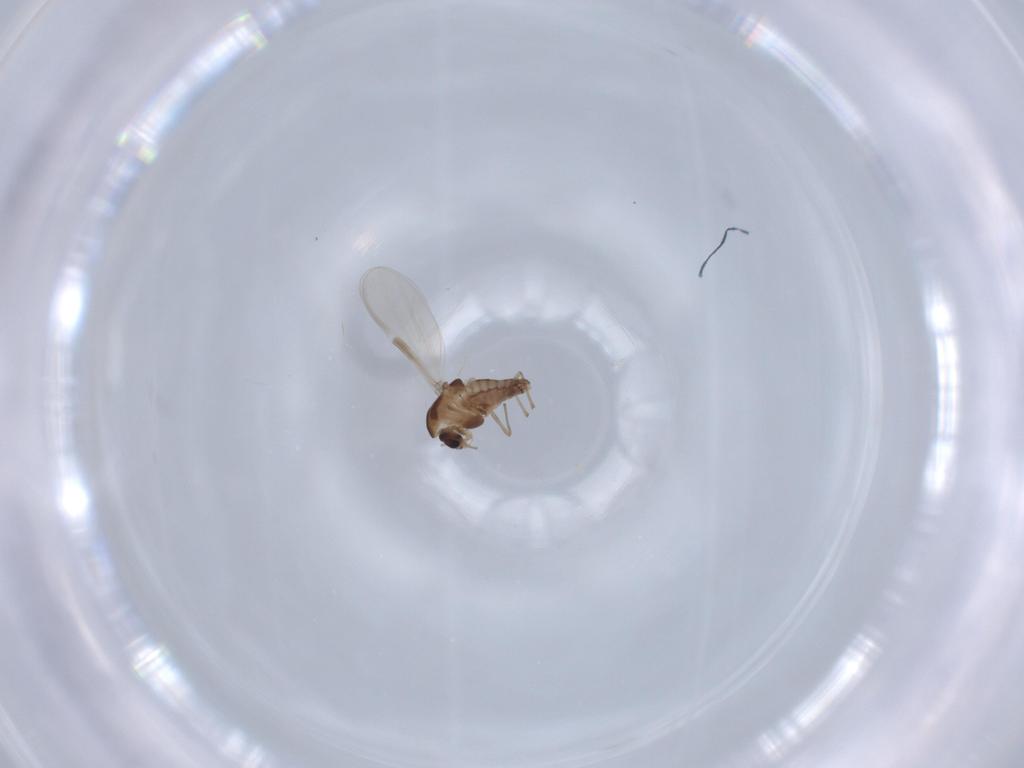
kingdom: Animalia
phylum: Arthropoda
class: Insecta
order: Diptera
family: Chironomidae
